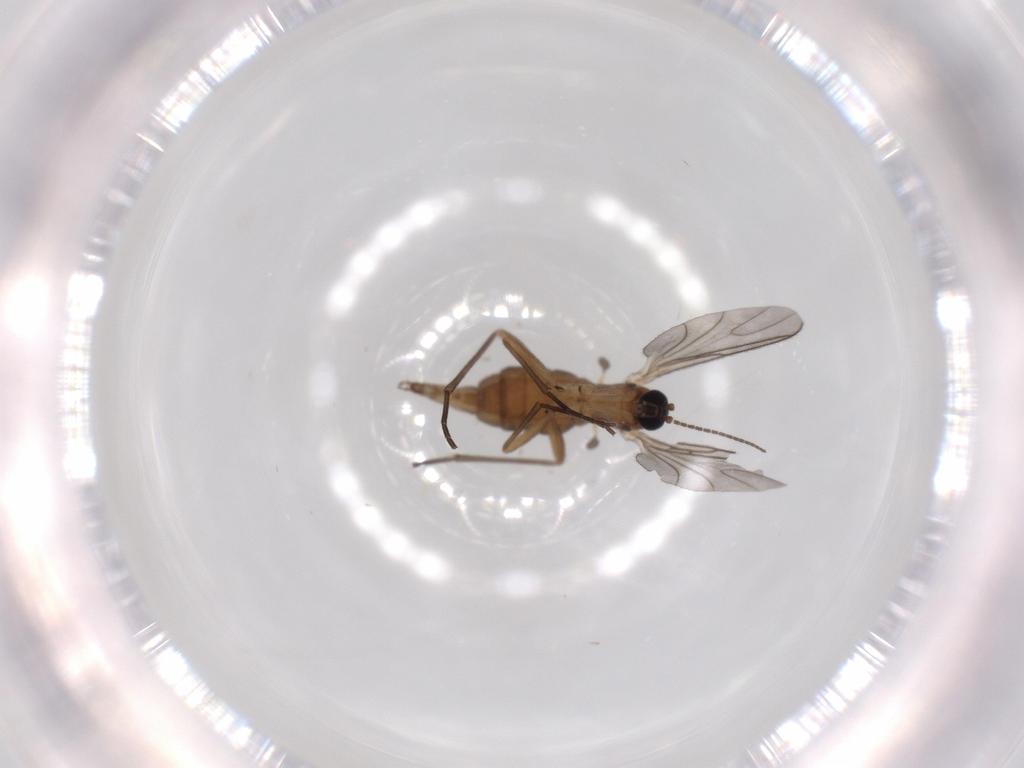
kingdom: Animalia
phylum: Arthropoda
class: Insecta
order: Diptera
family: Sciaridae
